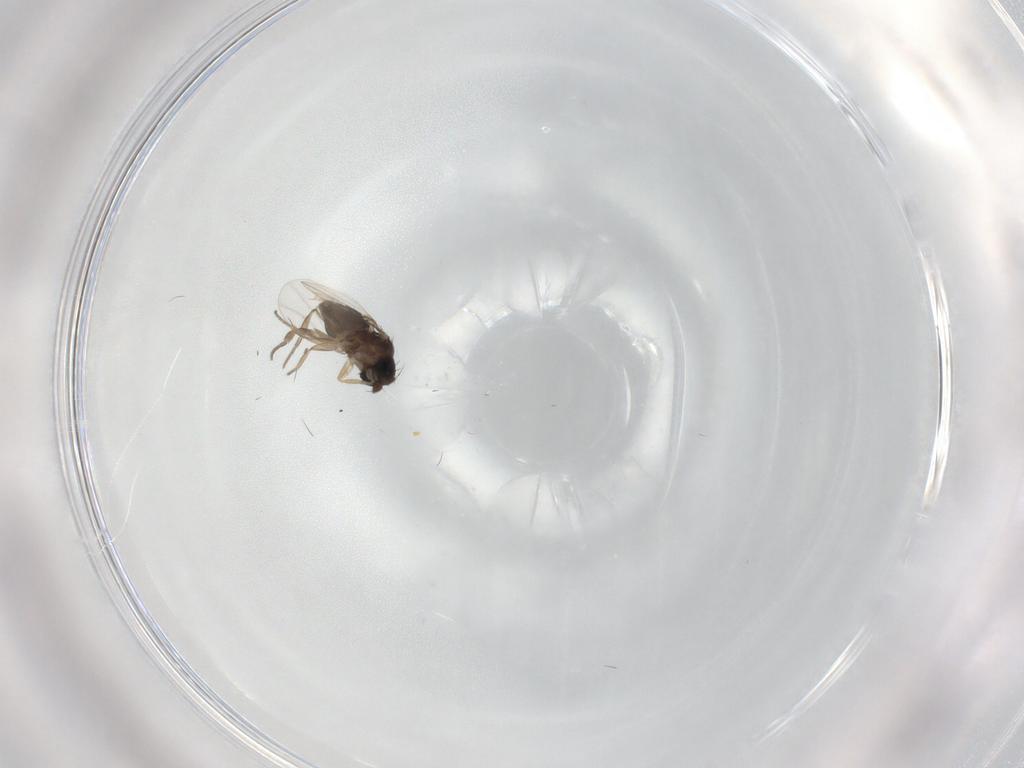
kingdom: Animalia
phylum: Arthropoda
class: Insecta
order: Diptera
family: Phoridae
